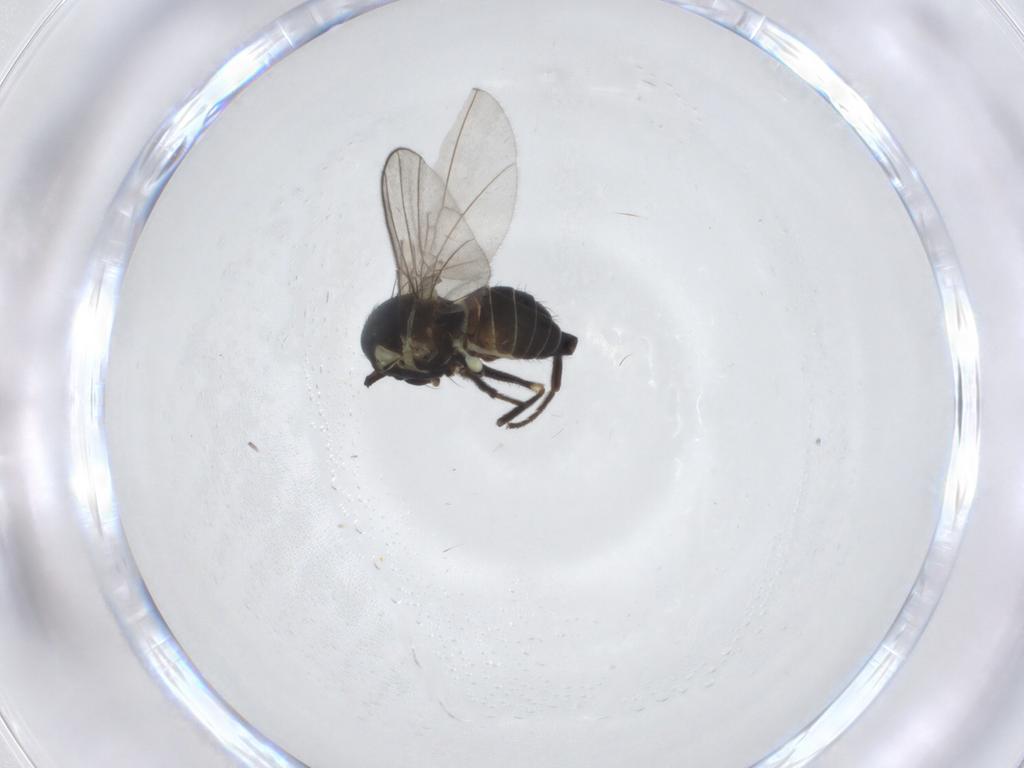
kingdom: Animalia
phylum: Arthropoda
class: Insecta
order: Diptera
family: Agromyzidae
